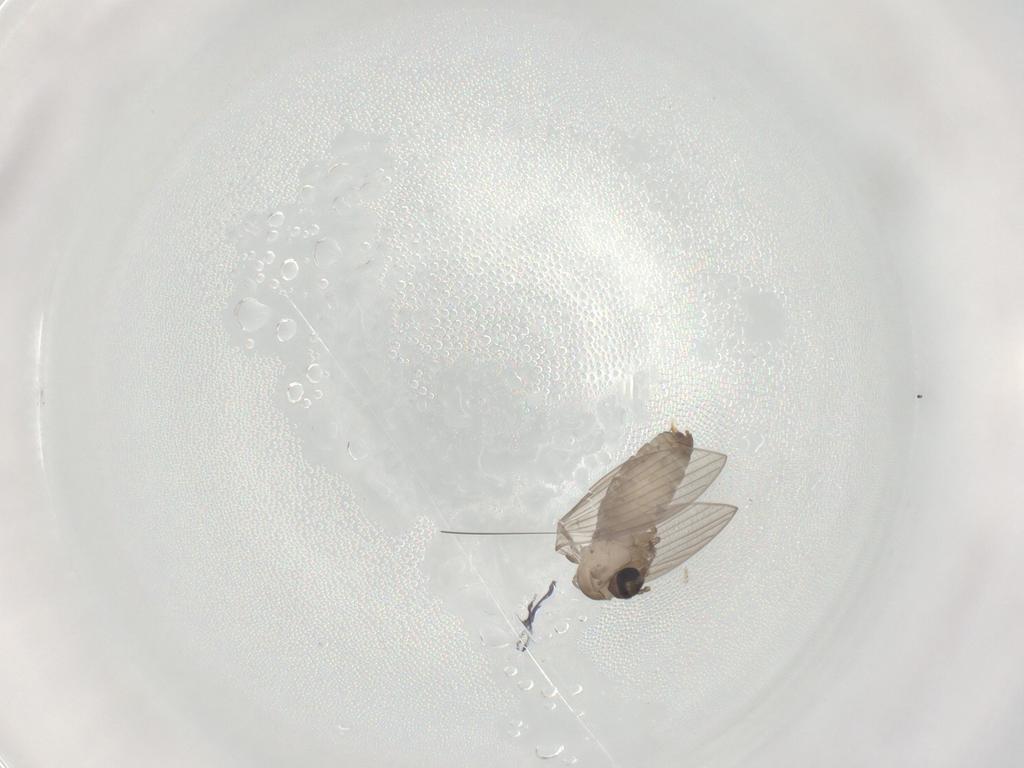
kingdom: Animalia
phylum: Arthropoda
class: Insecta
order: Diptera
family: Psychodidae
